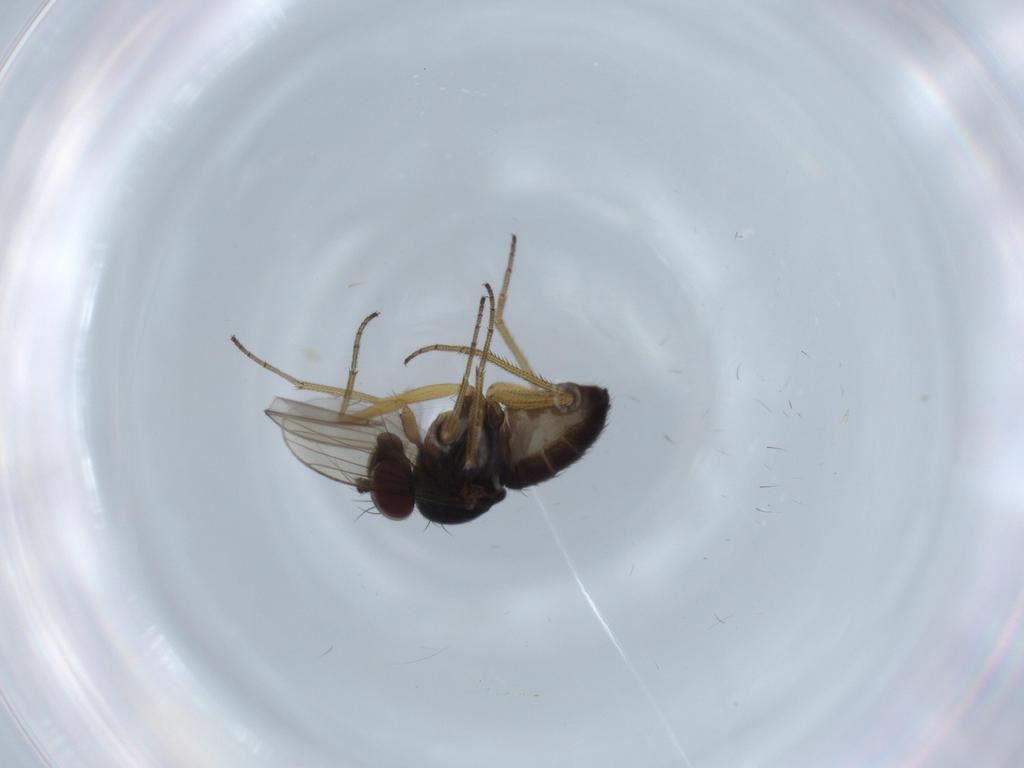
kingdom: Animalia
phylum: Arthropoda
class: Insecta
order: Diptera
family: Dolichopodidae
